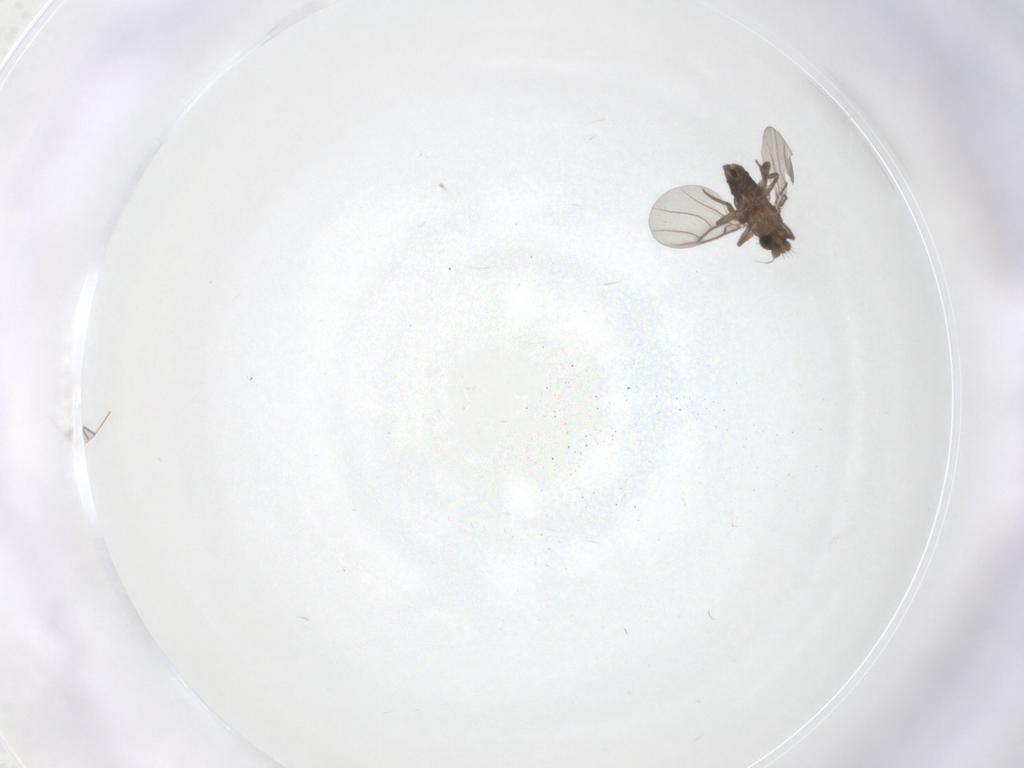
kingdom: Animalia
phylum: Arthropoda
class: Insecta
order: Diptera
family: Phoridae
